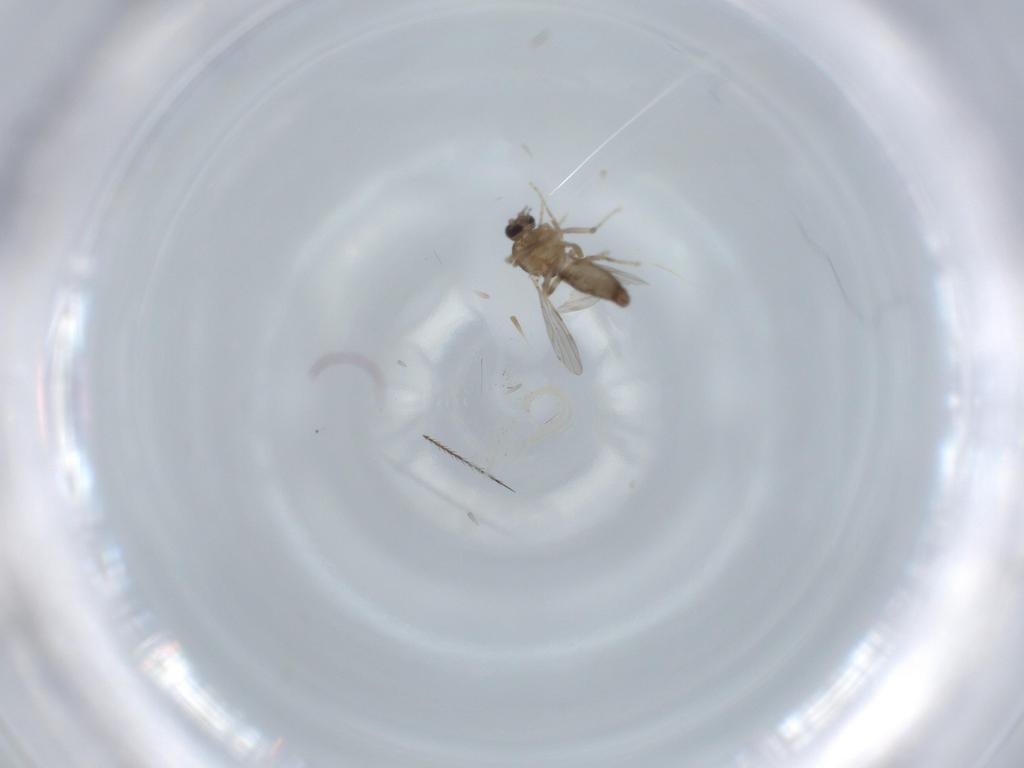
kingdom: Animalia
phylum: Arthropoda
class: Insecta
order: Diptera
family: Ceratopogonidae
